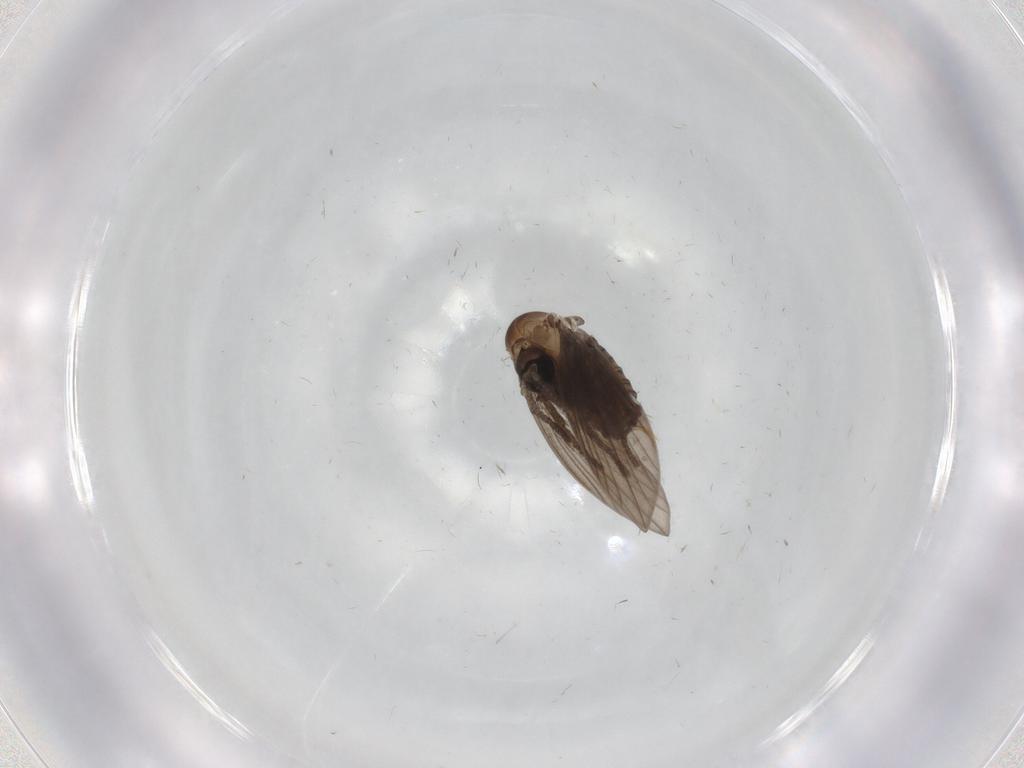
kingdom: Animalia
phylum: Arthropoda
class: Insecta
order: Diptera
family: Psychodidae
